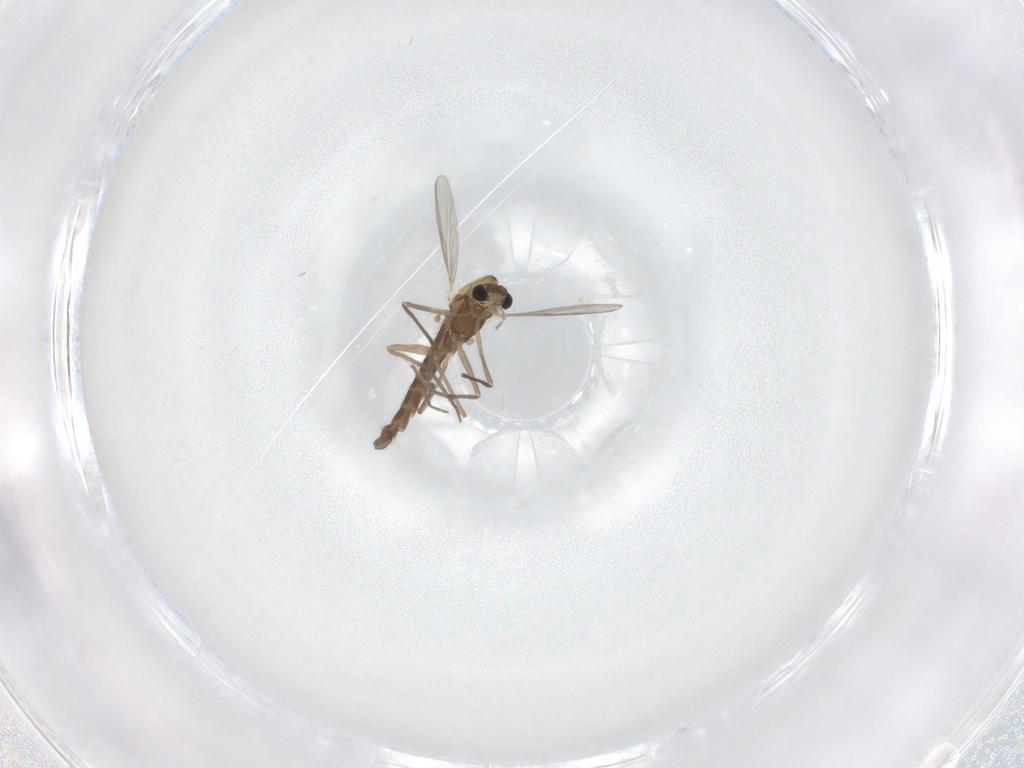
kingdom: Animalia
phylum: Arthropoda
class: Insecta
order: Diptera
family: Chironomidae
